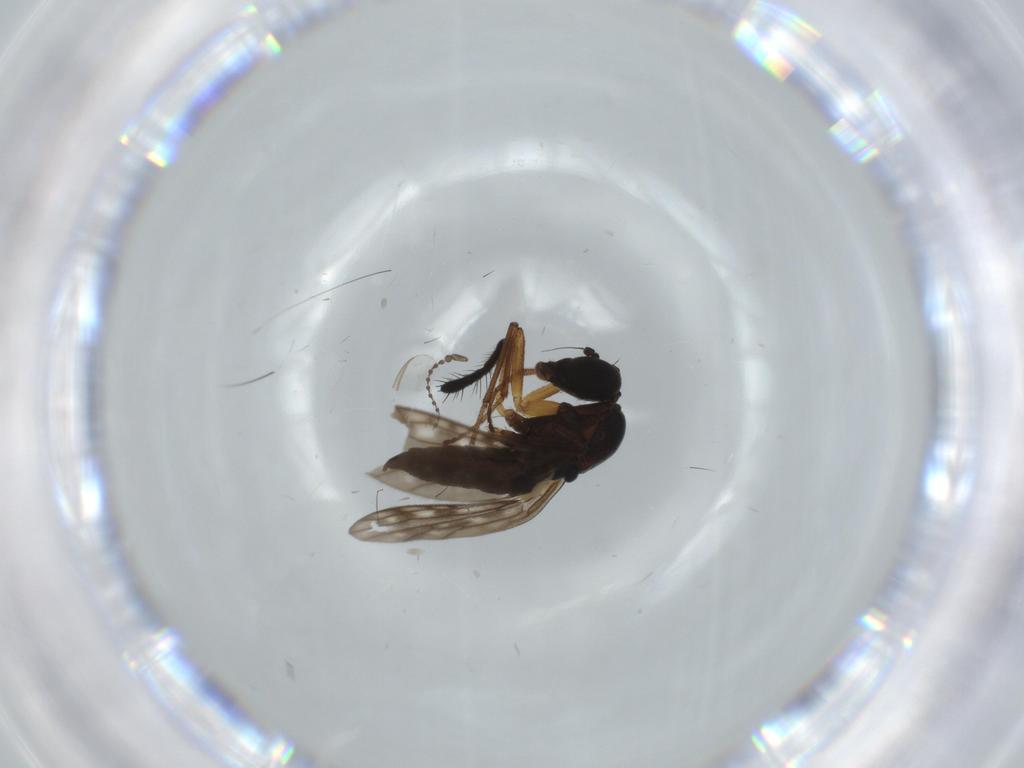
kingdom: Animalia
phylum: Arthropoda
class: Insecta
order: Diptera
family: Psychodidae
